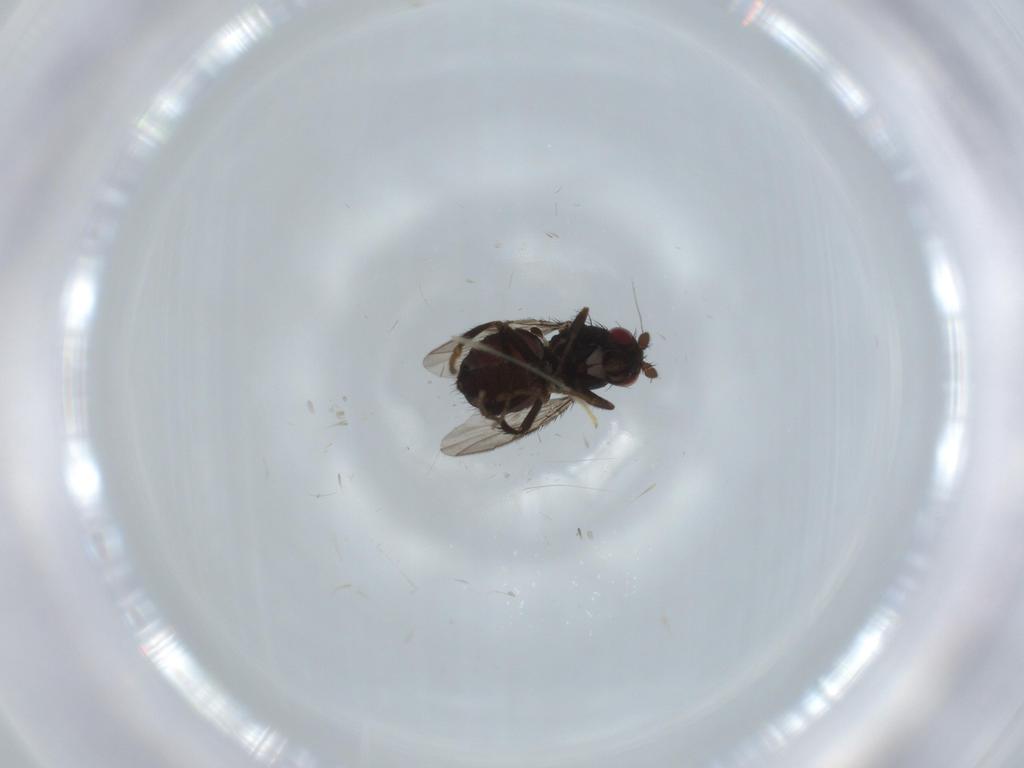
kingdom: Animalia
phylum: Arthropoda
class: Insecta
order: Diptera
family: Sphaeroceridae
